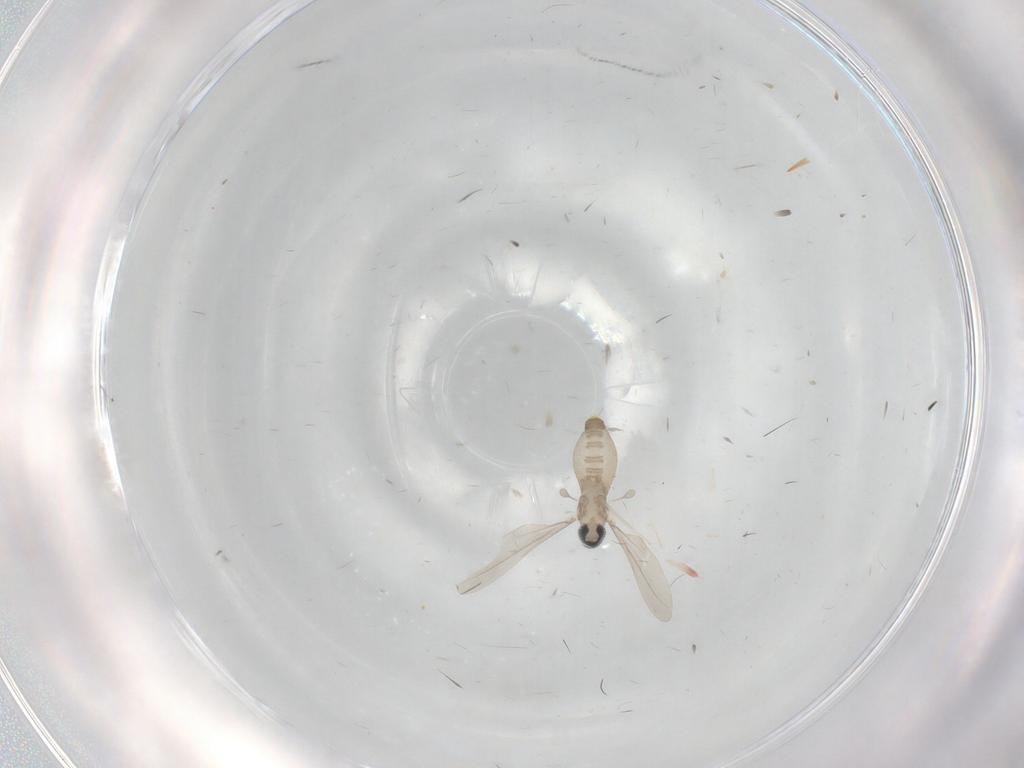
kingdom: Animalia
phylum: Arthropoda
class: Insecta
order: Diptera
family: Cecidomyiidae
